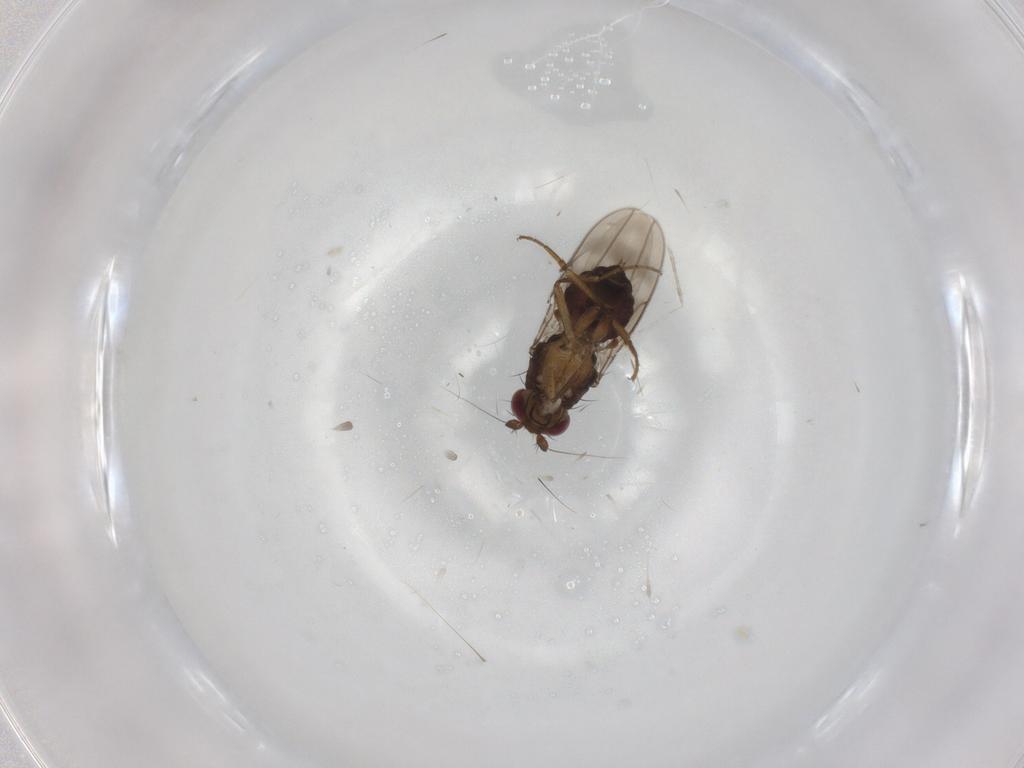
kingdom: Animalia
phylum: Arthropoda
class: Insecta
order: Diptera
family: Sphaeroceridae
